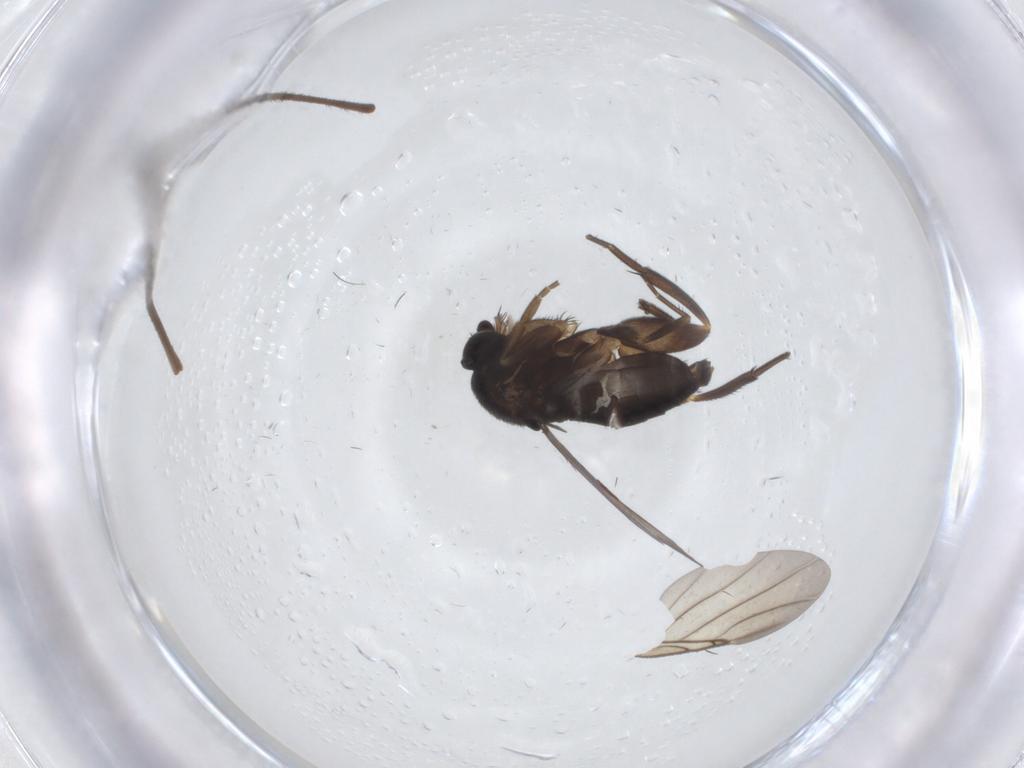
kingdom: Animalia
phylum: Arthropoda
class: Insecta
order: Diptera
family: Phoridae
